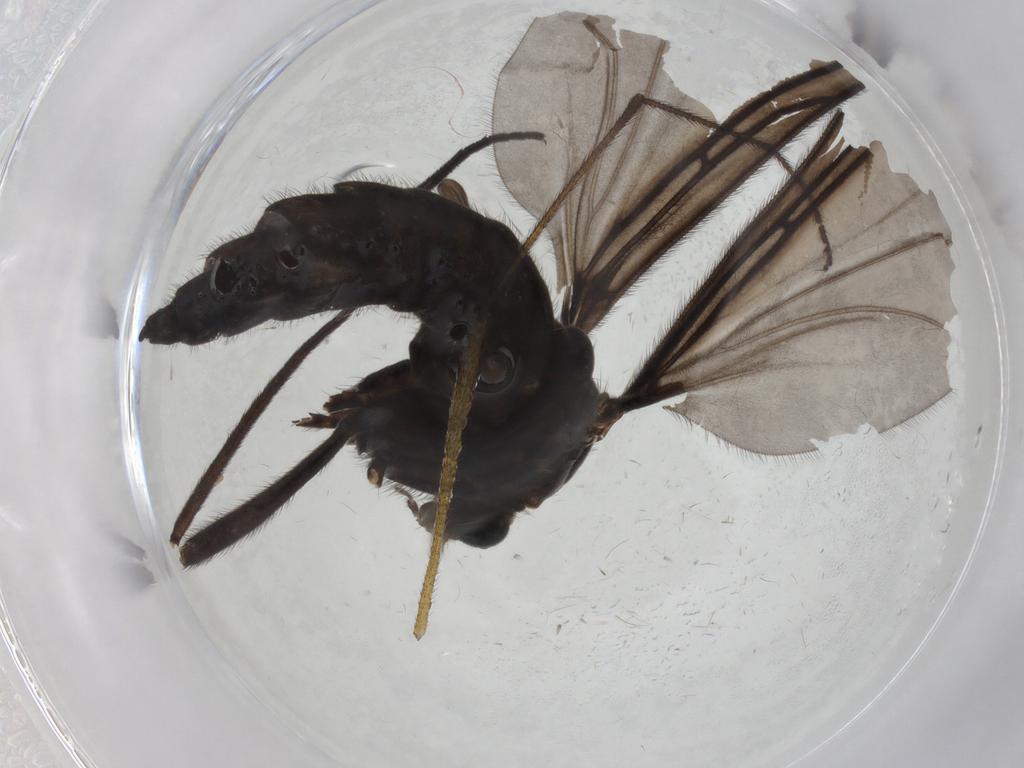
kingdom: Animalia
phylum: Arthropoda
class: Insecta
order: Diptera
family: Limoniidae
